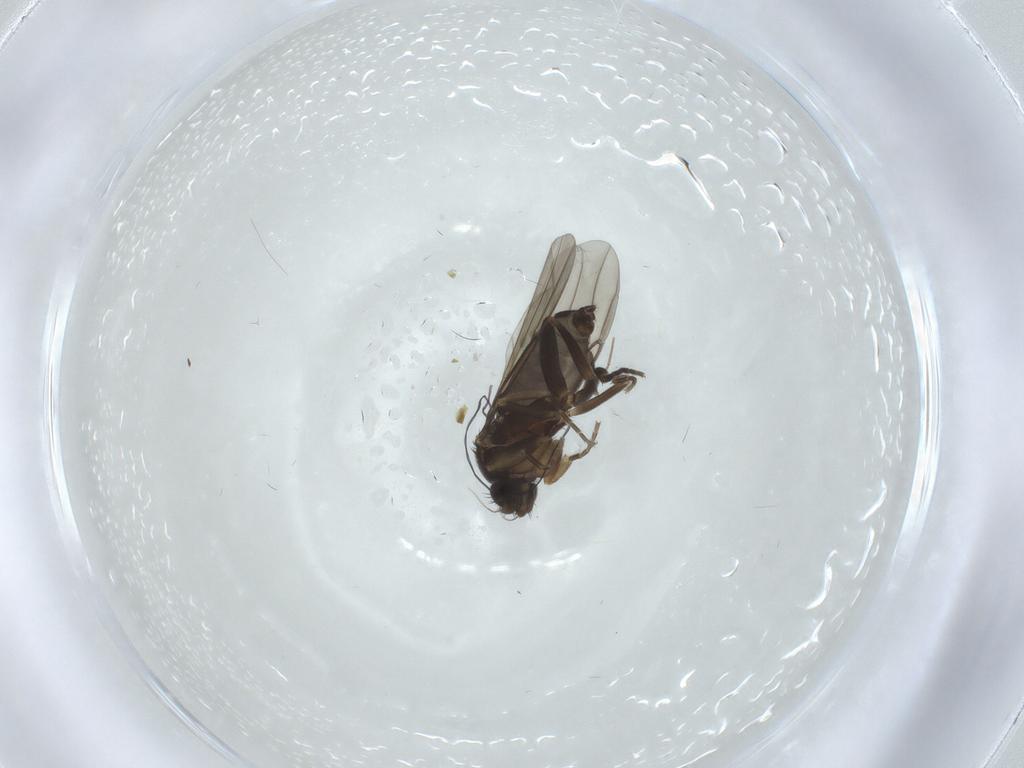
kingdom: Animalia
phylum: Arthropoda
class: Insecta
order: Diptera
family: Phoridae
